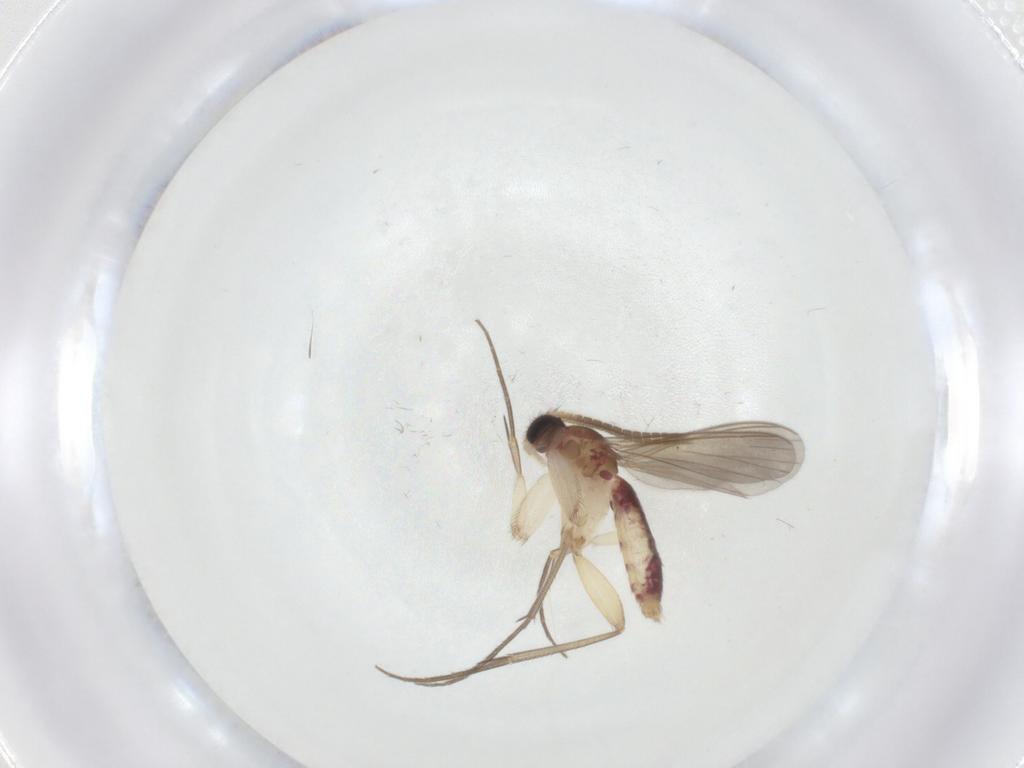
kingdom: Animalia
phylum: Arthropoda
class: Insecta
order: Diptera
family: Mycetophilidae
